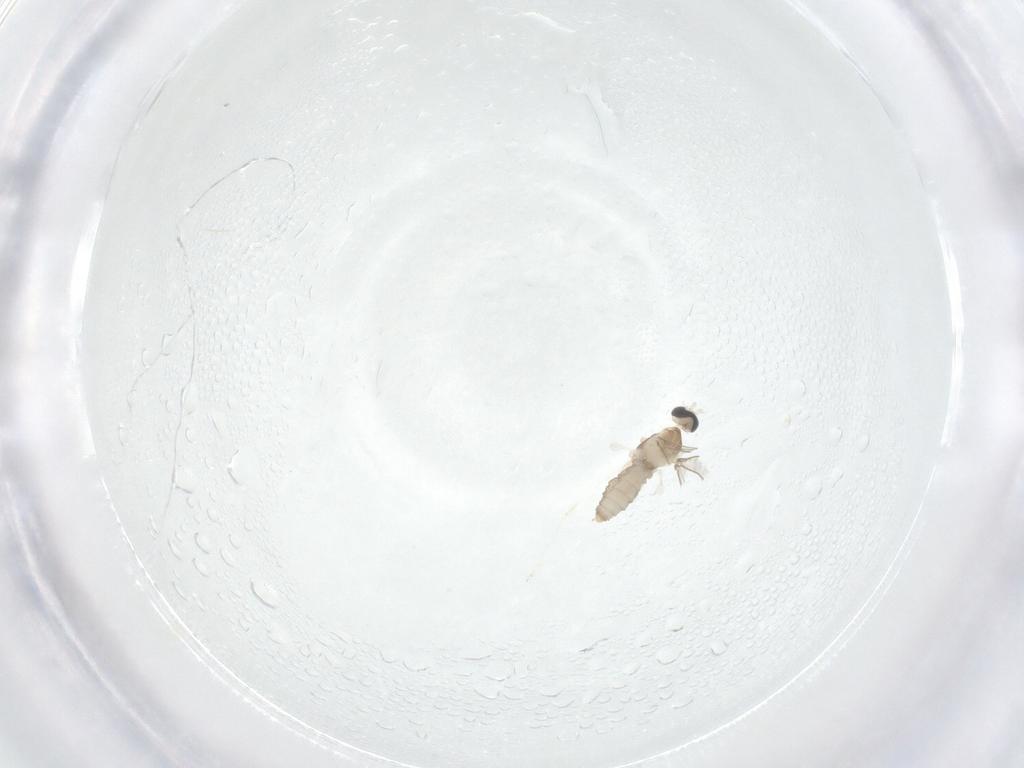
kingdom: Animalia
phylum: Arthropoda
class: Insecta
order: Diptera
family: Cecidomyiidae
